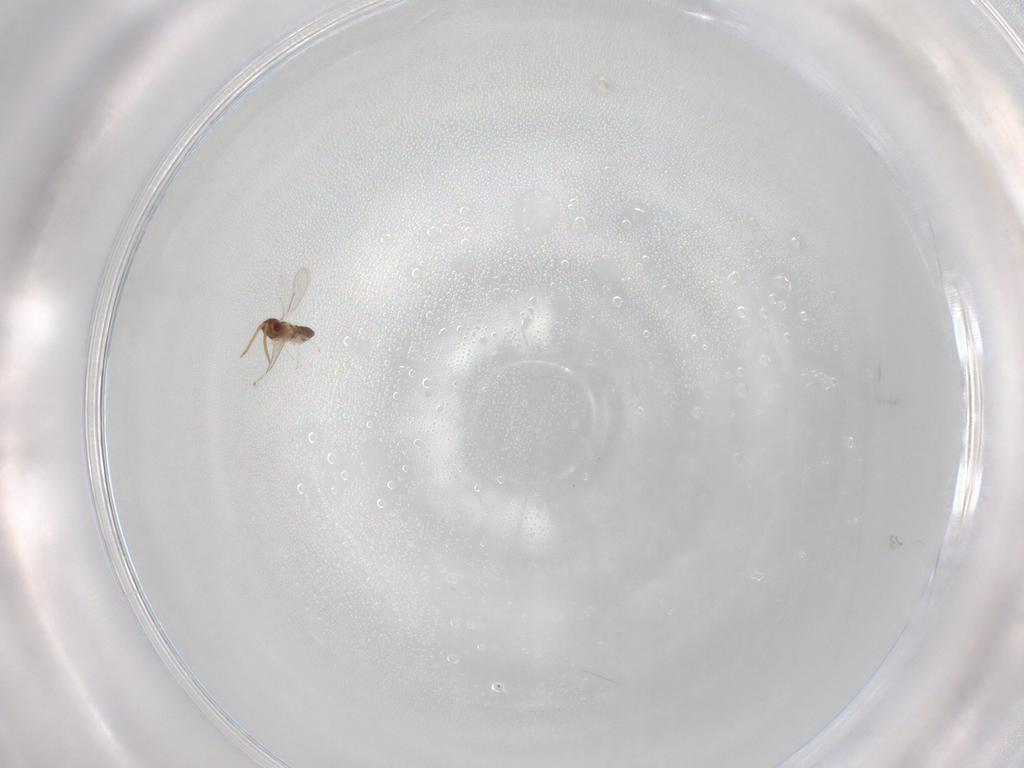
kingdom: Animalia
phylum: Arthropoda
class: Insecta
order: Hymenoptera
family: Aphelinidae
